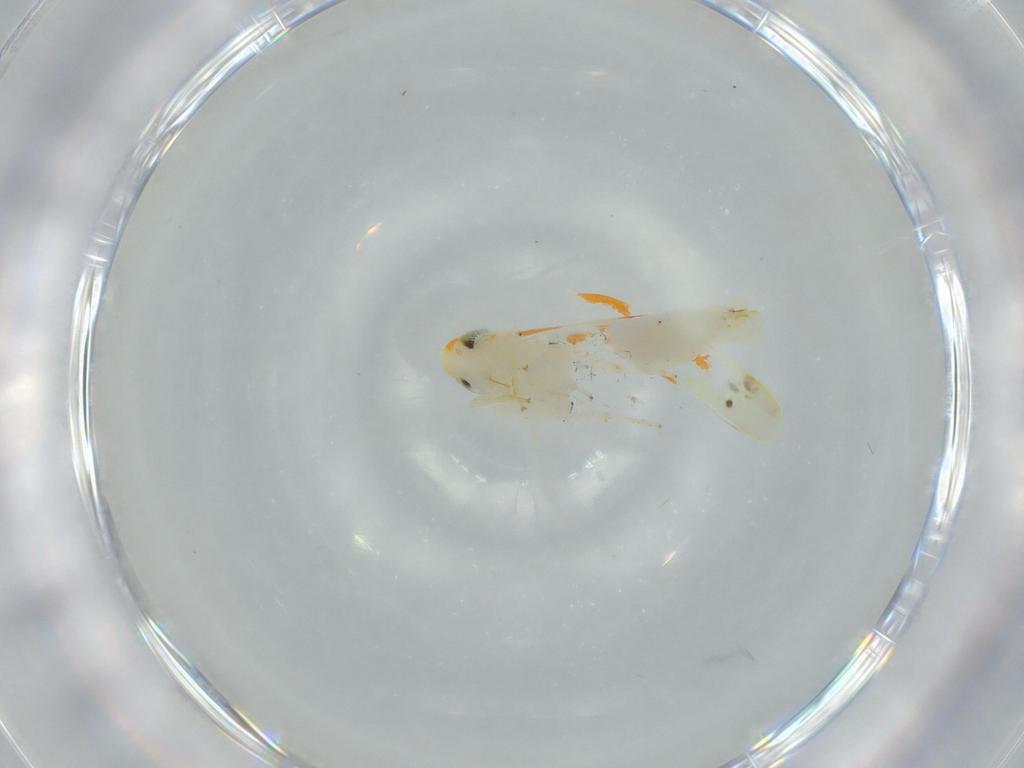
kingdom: Animalia
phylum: Arthropoda
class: Insecta
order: Hemiptera
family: Cicadellidae
